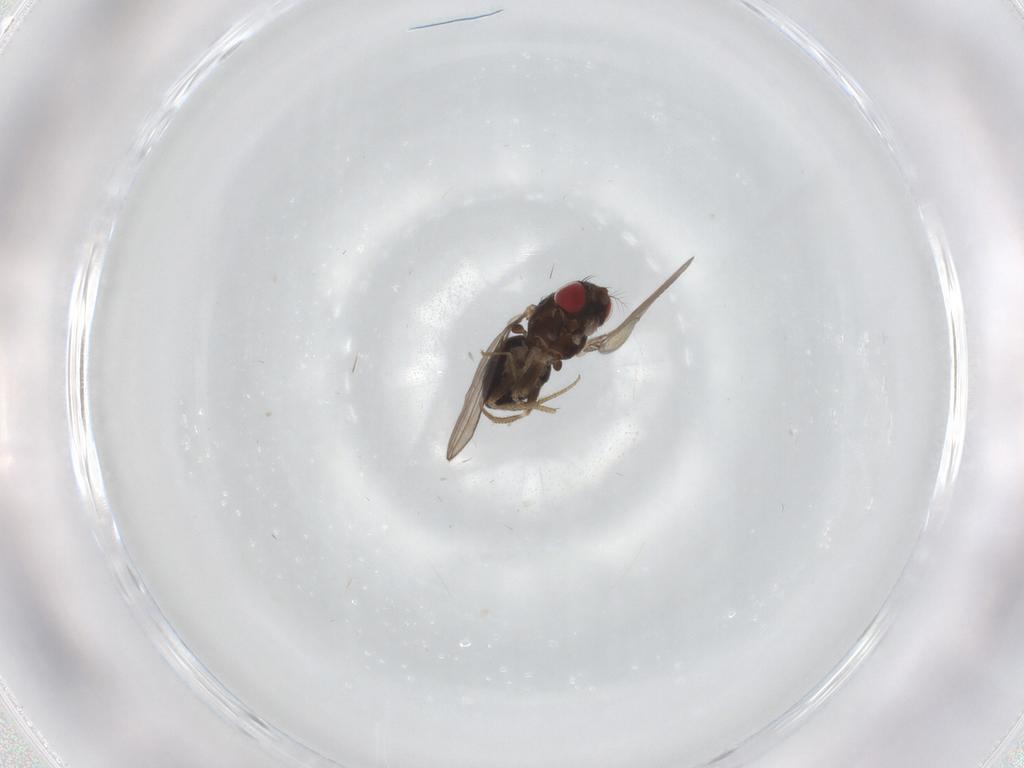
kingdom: Animalia
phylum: Arthropoda
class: Insecta
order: Diptera
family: Drosophilidae
